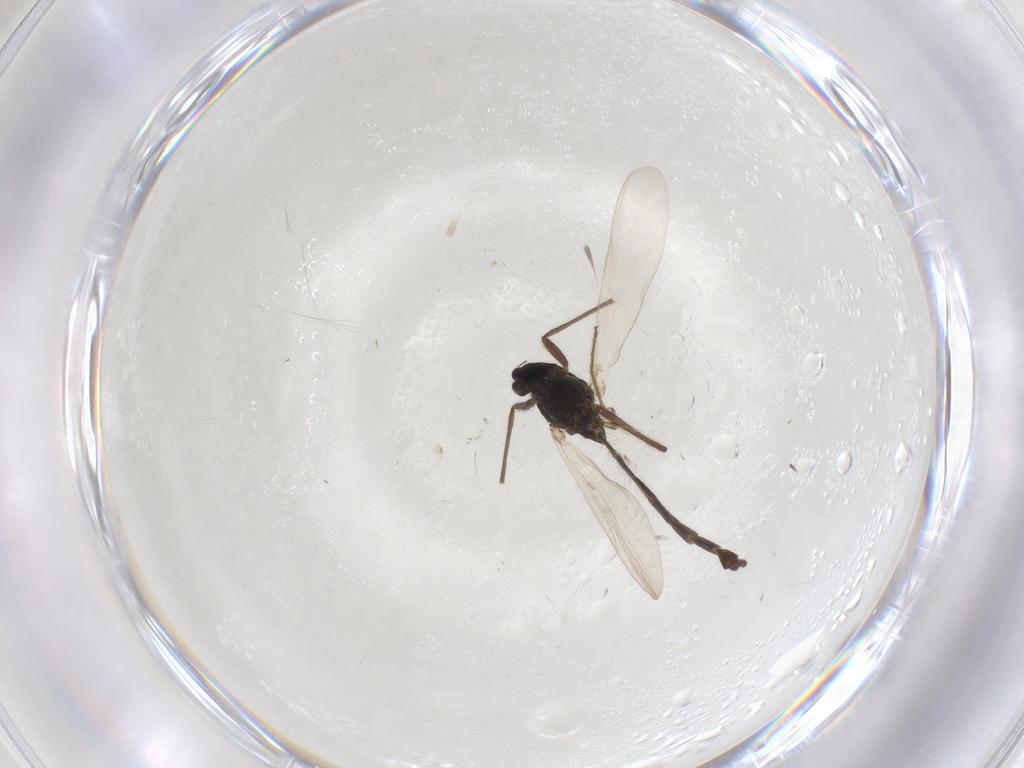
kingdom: Animalia
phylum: Arthropoda
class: Insecta
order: Diptera
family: Chironomidae
